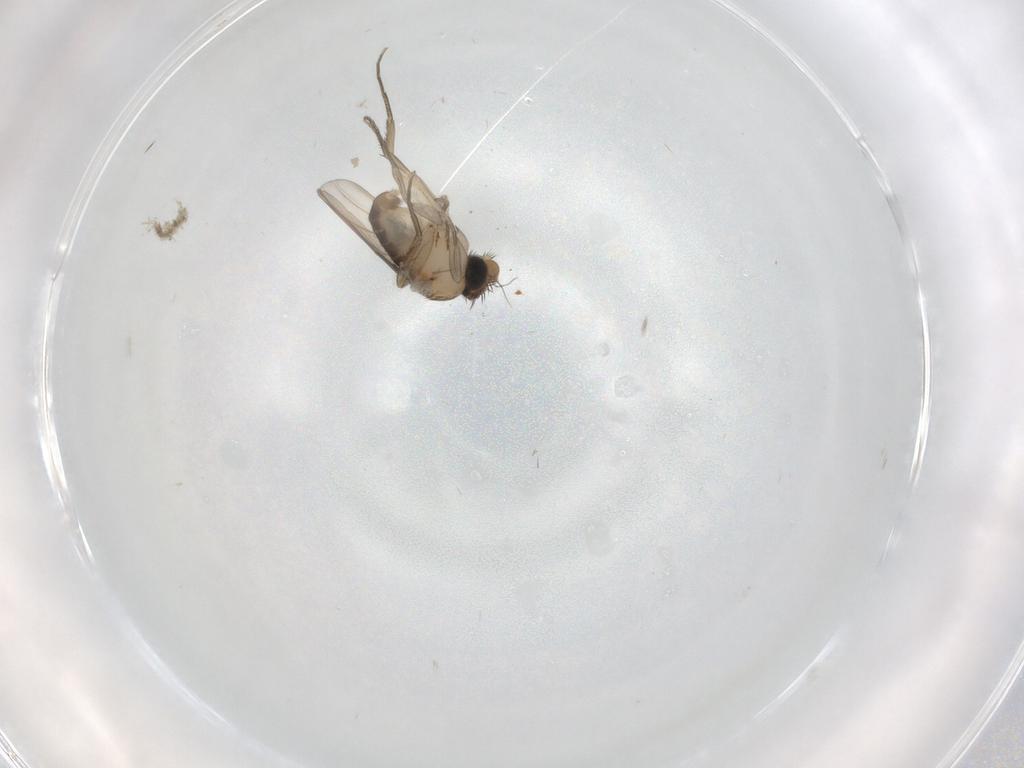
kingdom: Animalia
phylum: Arthropoda
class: Insecta
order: Diptera
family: Phoridae
